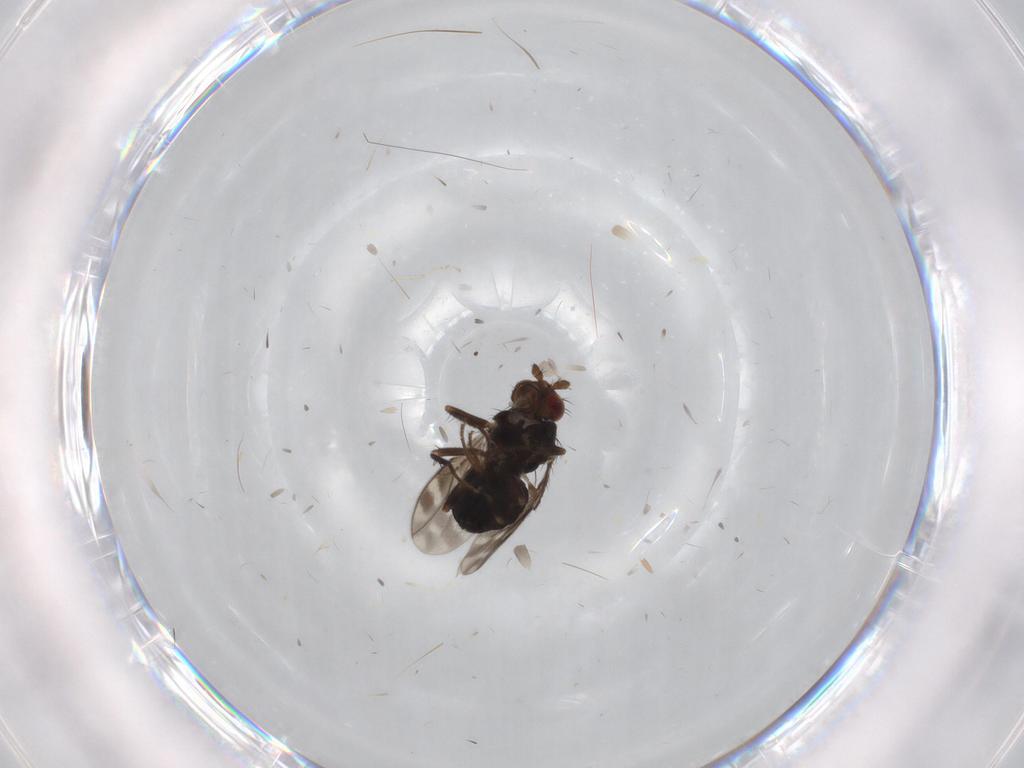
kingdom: Animalia
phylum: Arthropoda
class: Insecta
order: Diptera
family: Sphaeroceridae
